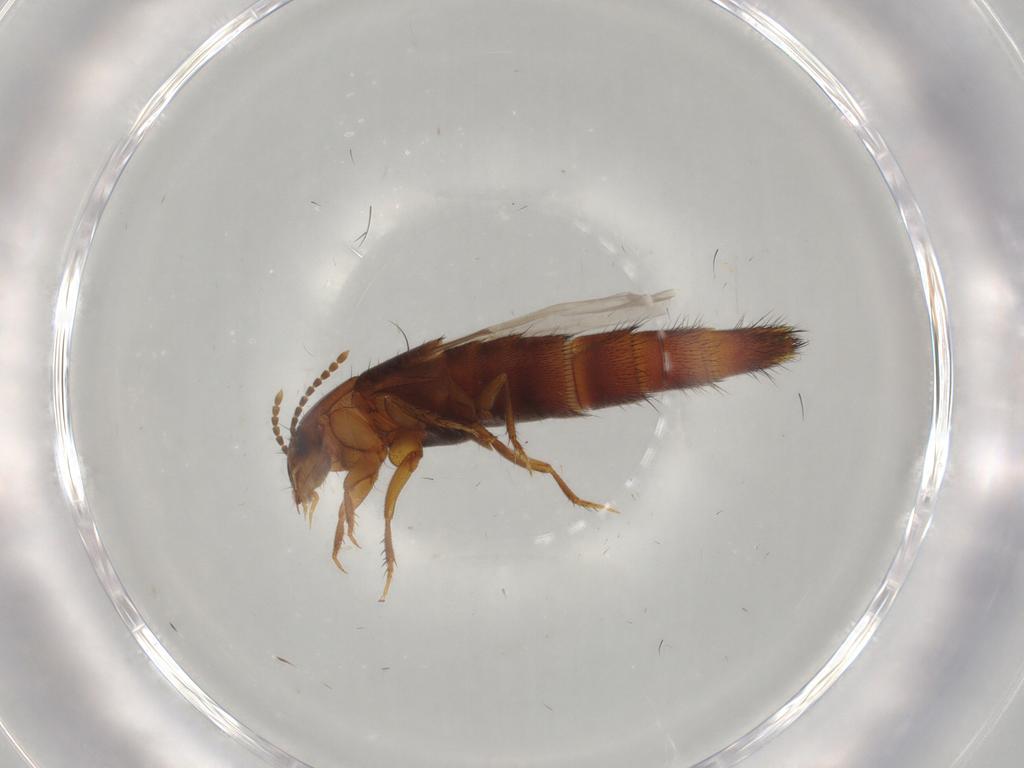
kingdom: Animalia
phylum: Arthropoda
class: Insecta
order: Coleoptera
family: Staphylinidae
